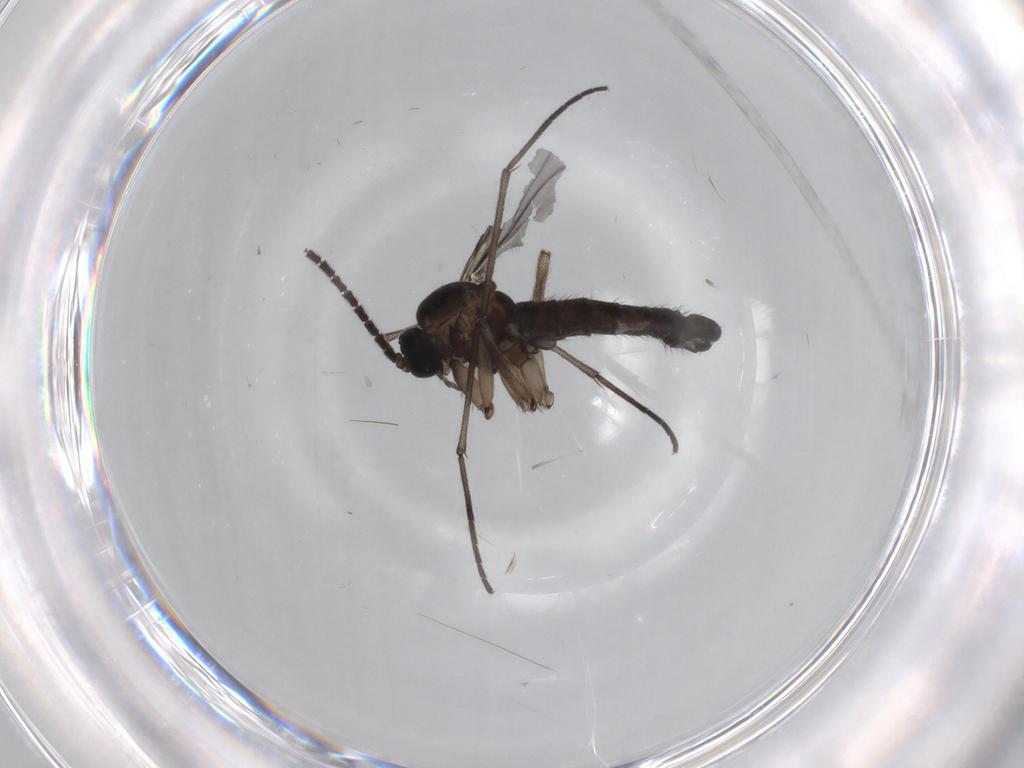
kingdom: Animalia
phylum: Arthropoda
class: Insecta
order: Diptera
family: Sciaridae
